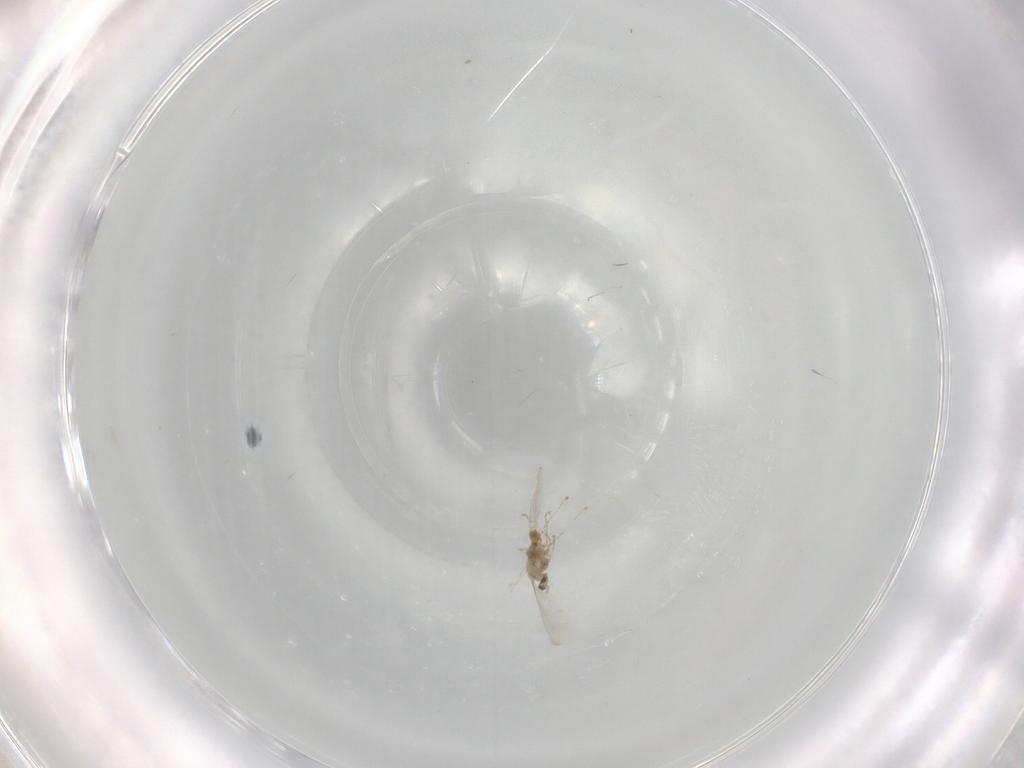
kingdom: Animalia
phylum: Arthropoda
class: Insecta
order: Diptera
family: Cecidomyiidae
